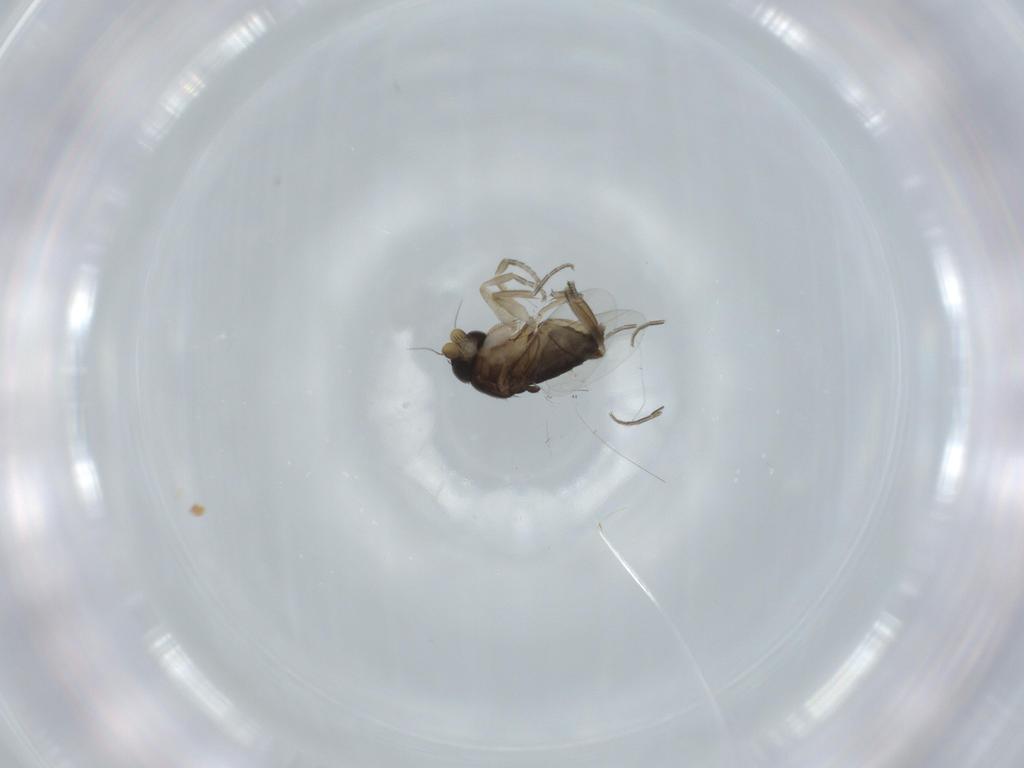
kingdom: Animalia
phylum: Arthropoda
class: Insecta
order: Diptera
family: Phoridae
